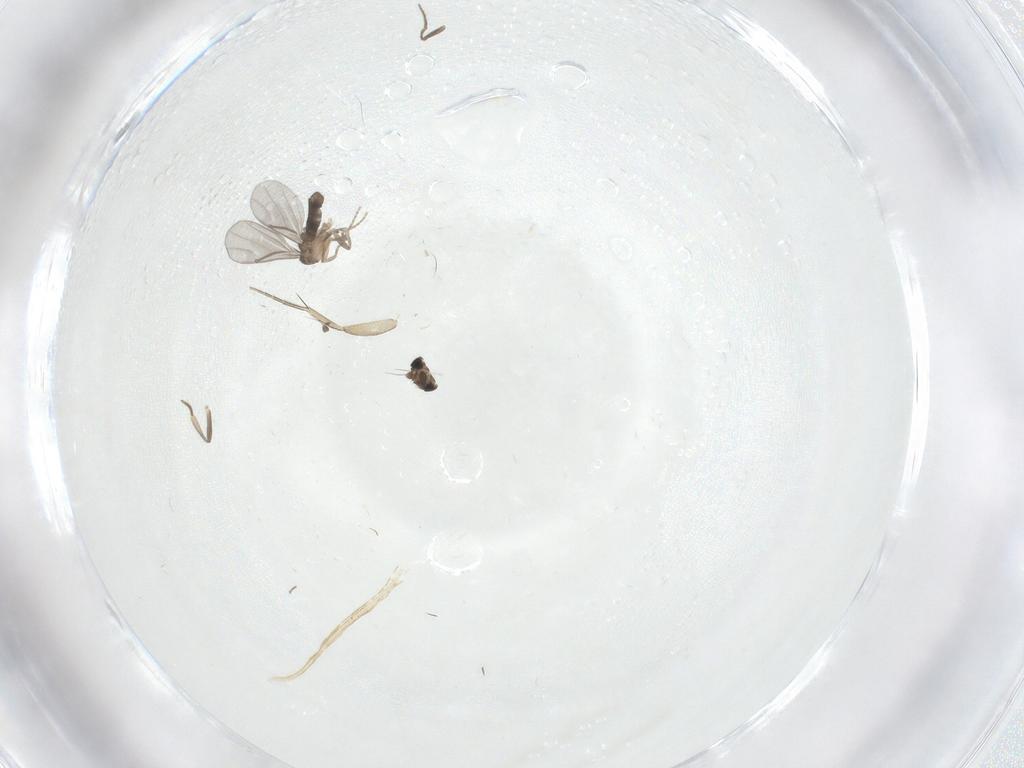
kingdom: Animalia
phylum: Arthropoda
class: Insecta
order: Diptera
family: Phoridae
